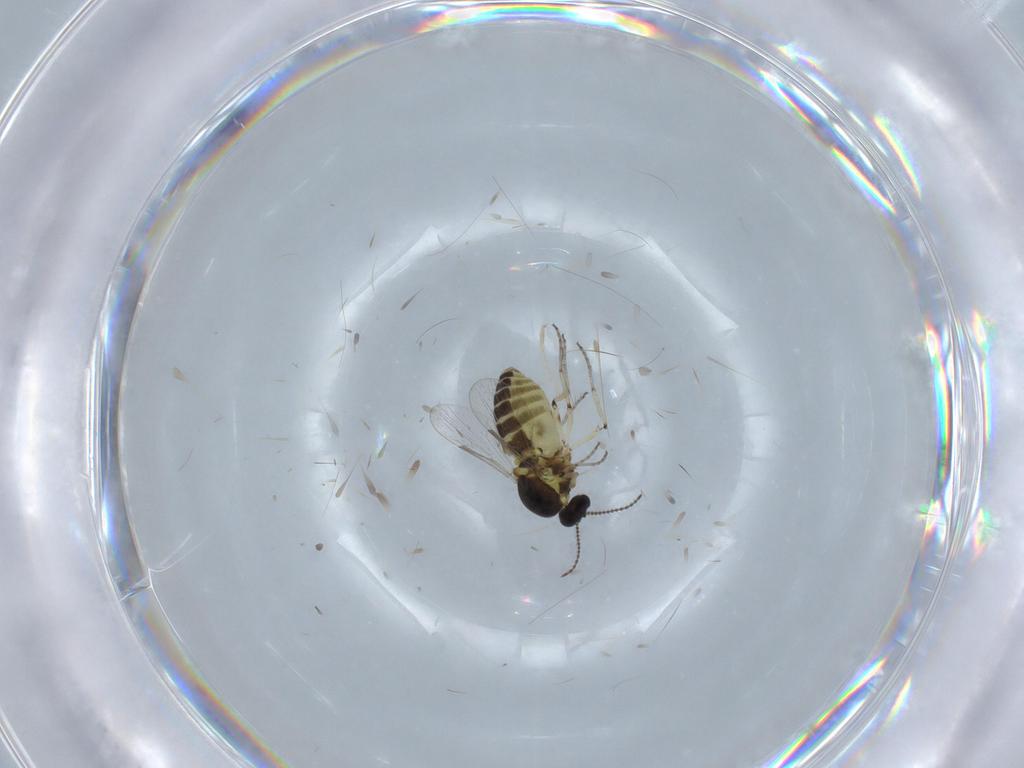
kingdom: Animalia
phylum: Arthropoda
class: Insecta
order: Diptera
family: Ceratopogonidae
